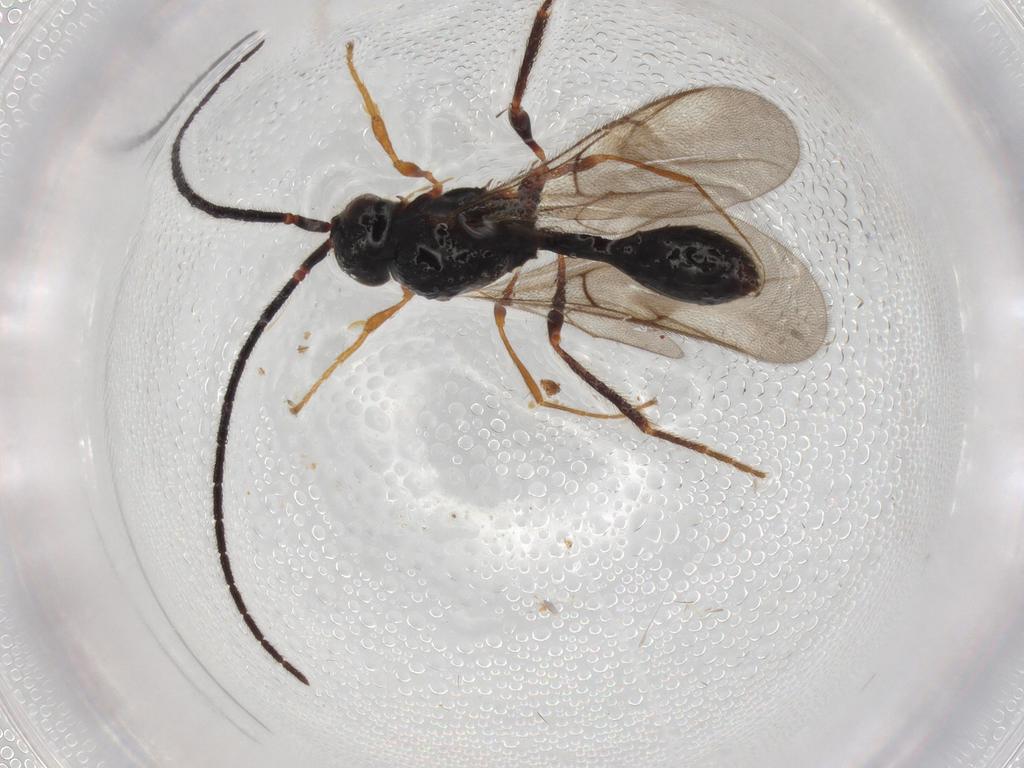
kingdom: Animalia
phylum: Arthropoda
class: Insecta
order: Hymenoptera
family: Diapriidae
